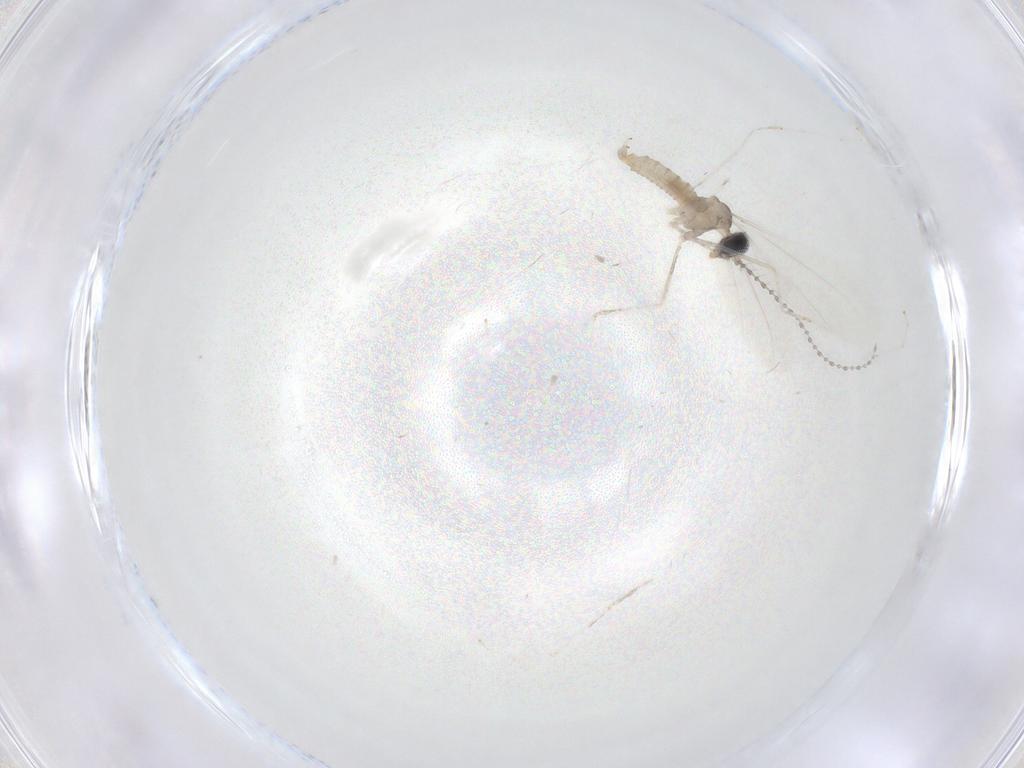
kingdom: Animalia
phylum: Arthropoda
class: Insecta
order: Diptera
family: Cecidomyiidae
